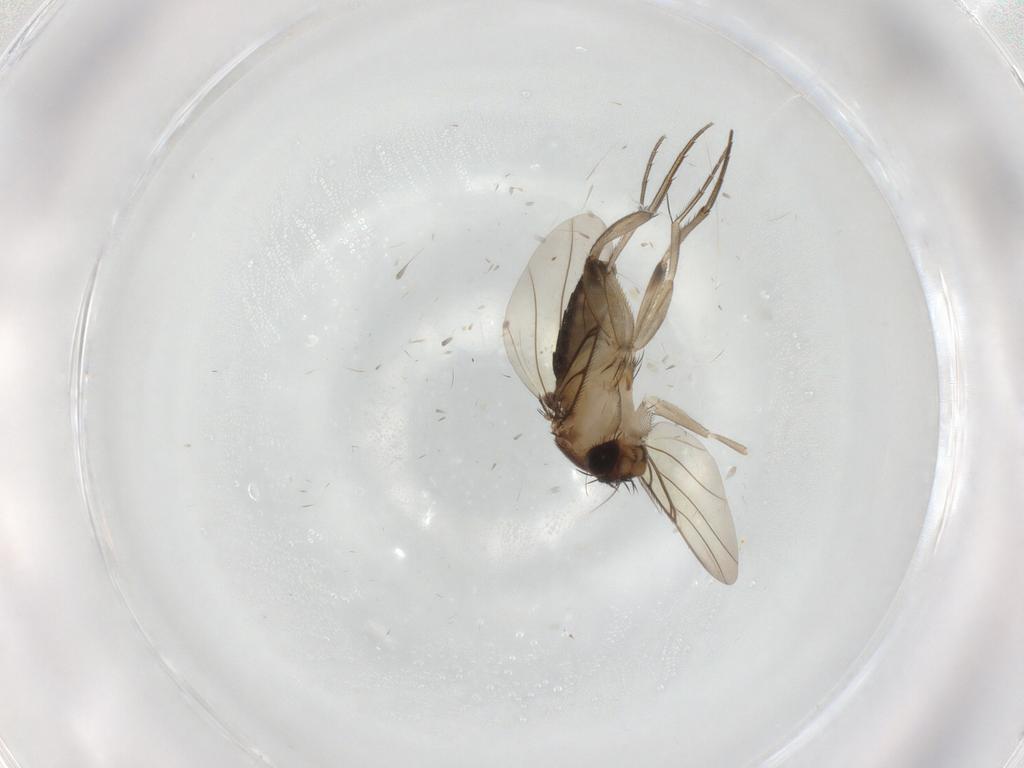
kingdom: Animalia
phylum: Arthropoda
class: Insecta
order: Diptera
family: Phoridae
